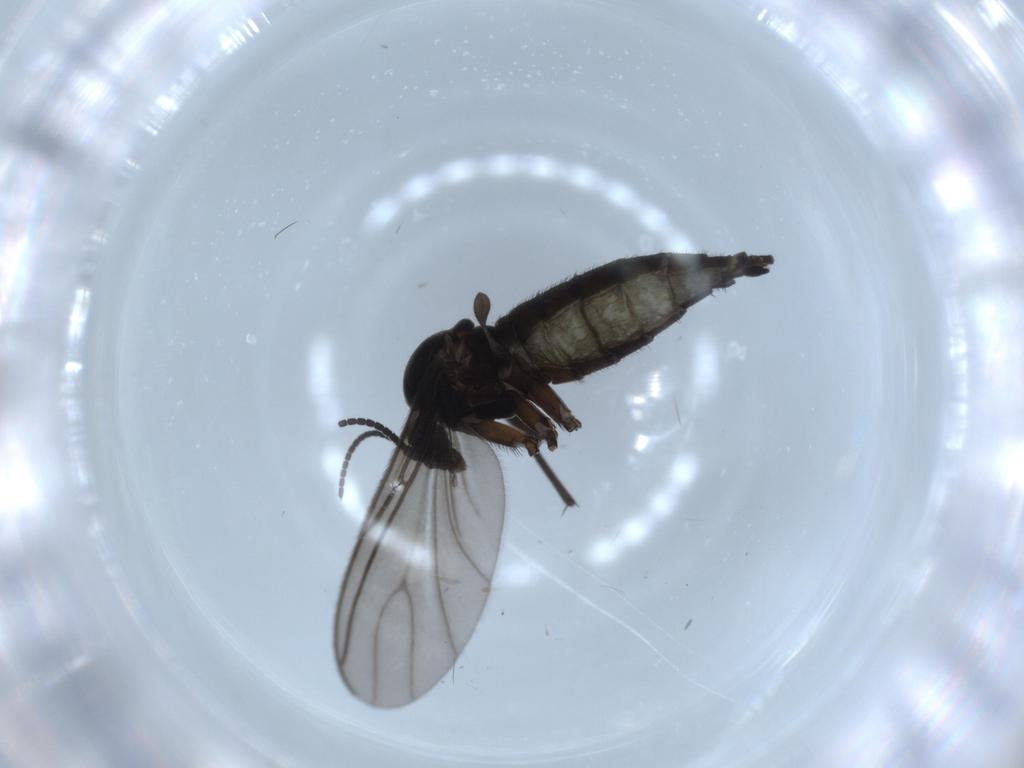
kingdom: Animalia
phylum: Arthropoda
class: Insecta
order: Diptera
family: Sciaridae
